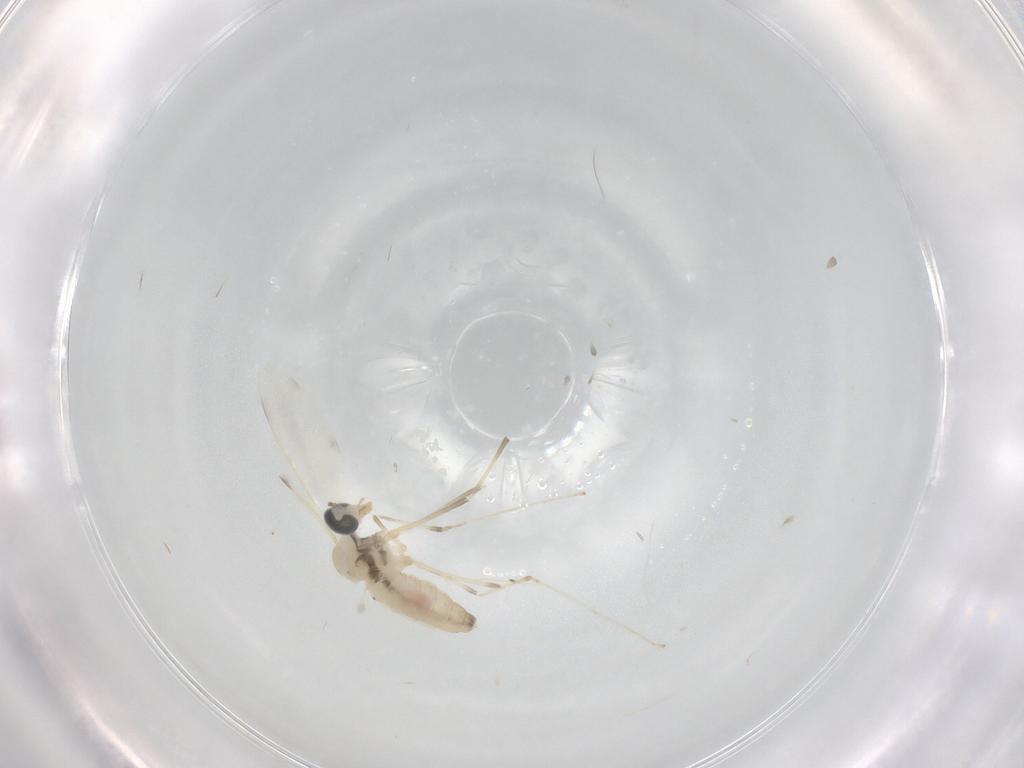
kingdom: Animalia
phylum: Arthropoda
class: Insecta
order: Diptera
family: Cecidomyiidae
